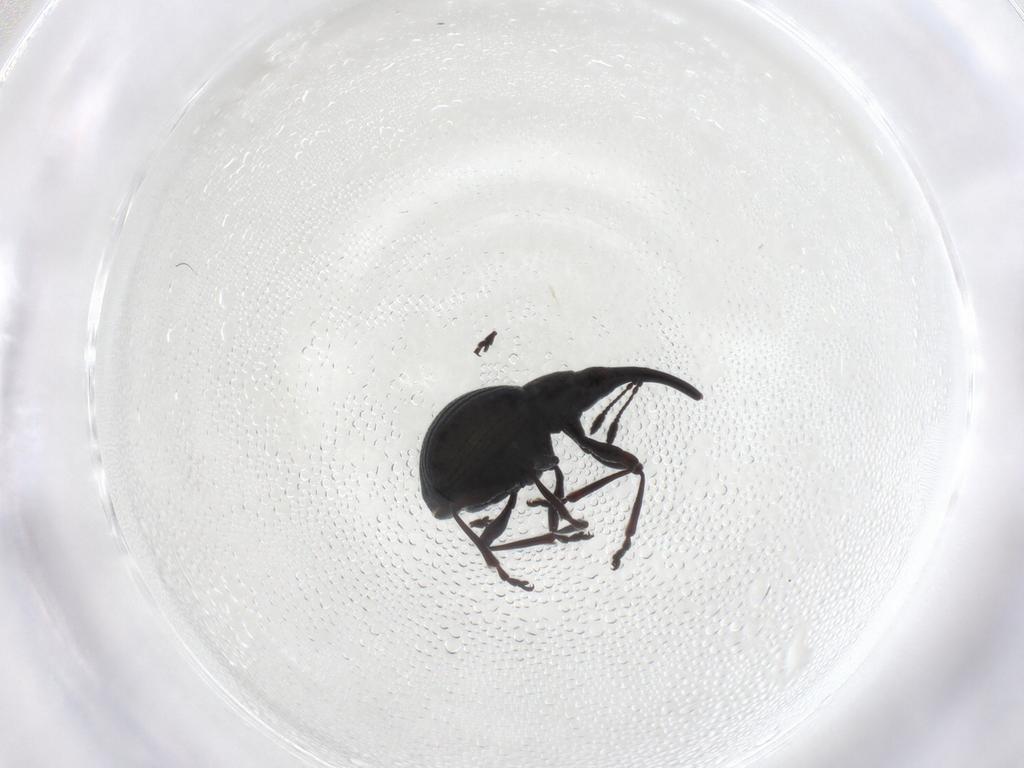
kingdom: Animalia
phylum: Arthropoda
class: Insecta
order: Coleoptera
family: Brentidae
